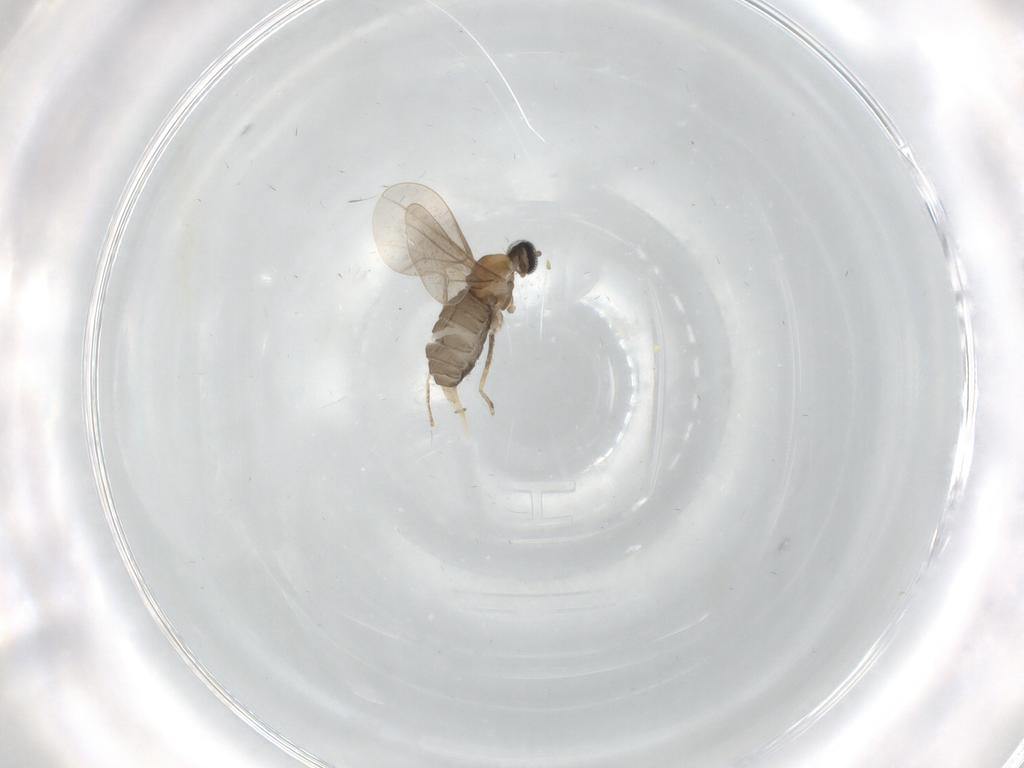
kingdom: Animalia
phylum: Arthropoda
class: Insecta
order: Diptera
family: Cecidomyiidae
